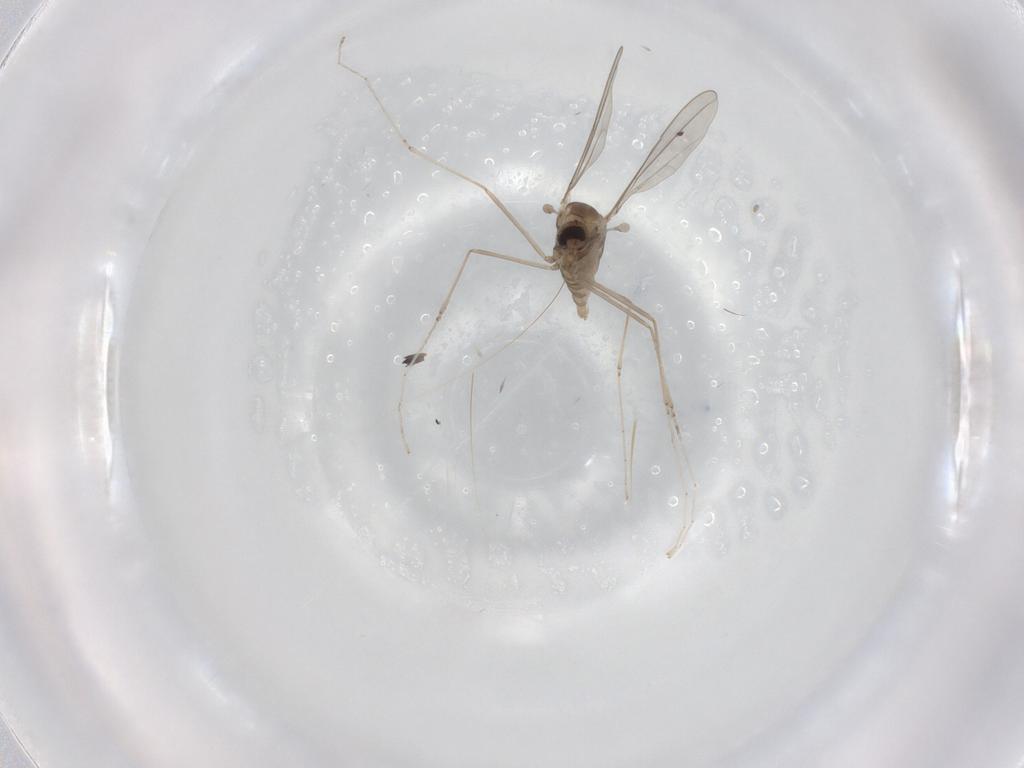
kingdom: Animalia
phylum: Arthropoda
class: Insecta
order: Diptera
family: Cecidomyiidae
